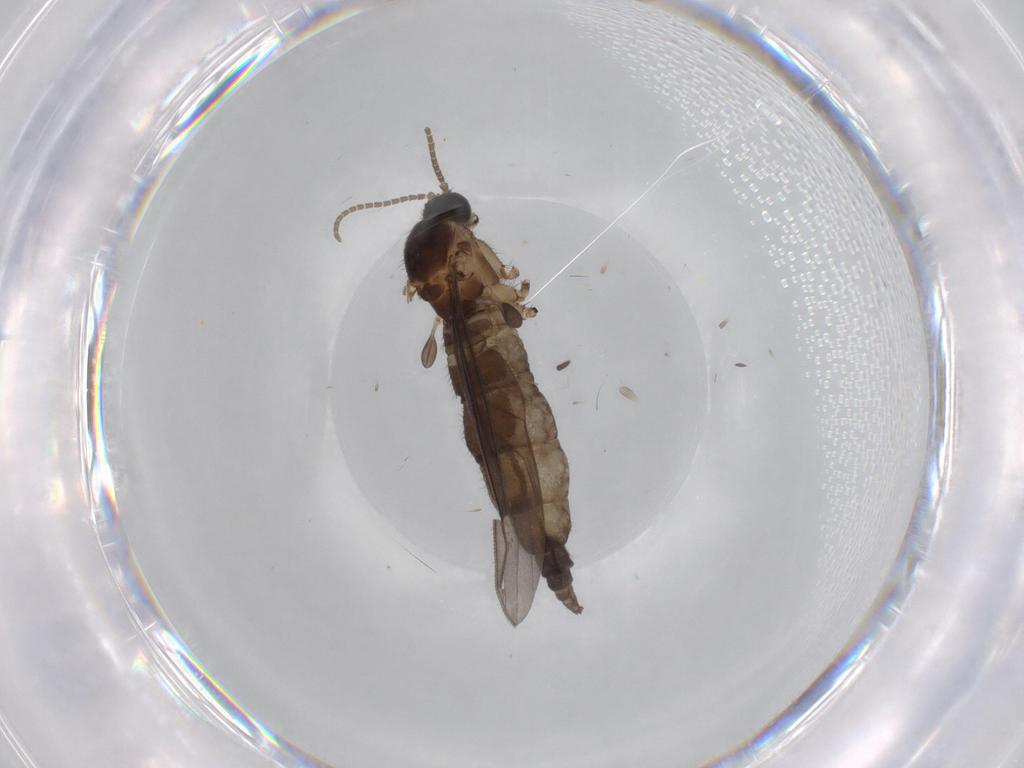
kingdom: Animalia
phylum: Arthropoda
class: Insecta
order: Diptera
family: Sciaridae
